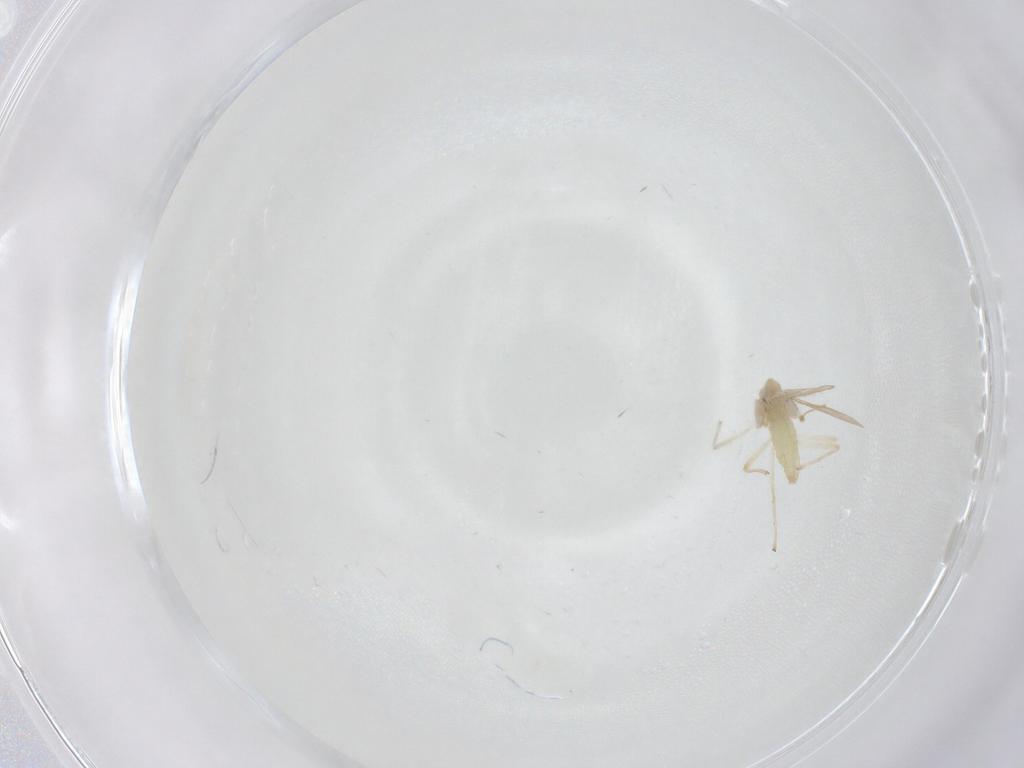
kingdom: Animalia
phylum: Arthropoda
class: Insecta
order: Diptera
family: Chironomidae
